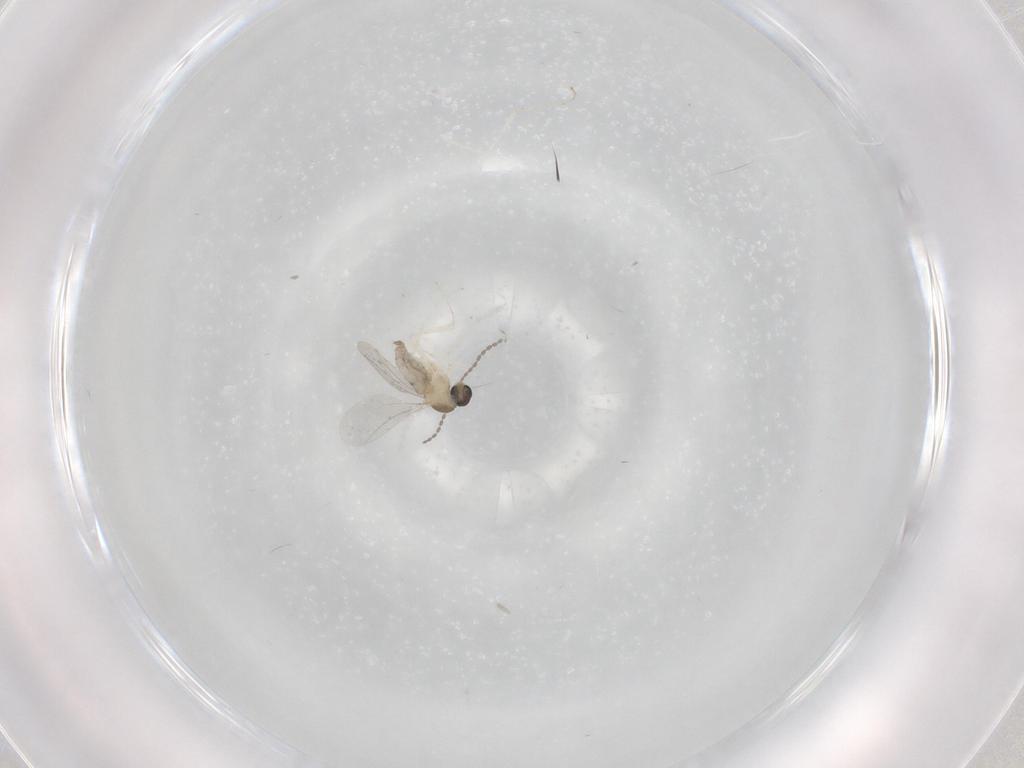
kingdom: Animalia
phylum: Arthropoda
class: Insecta
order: Diptera
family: Cecidomyiidae
